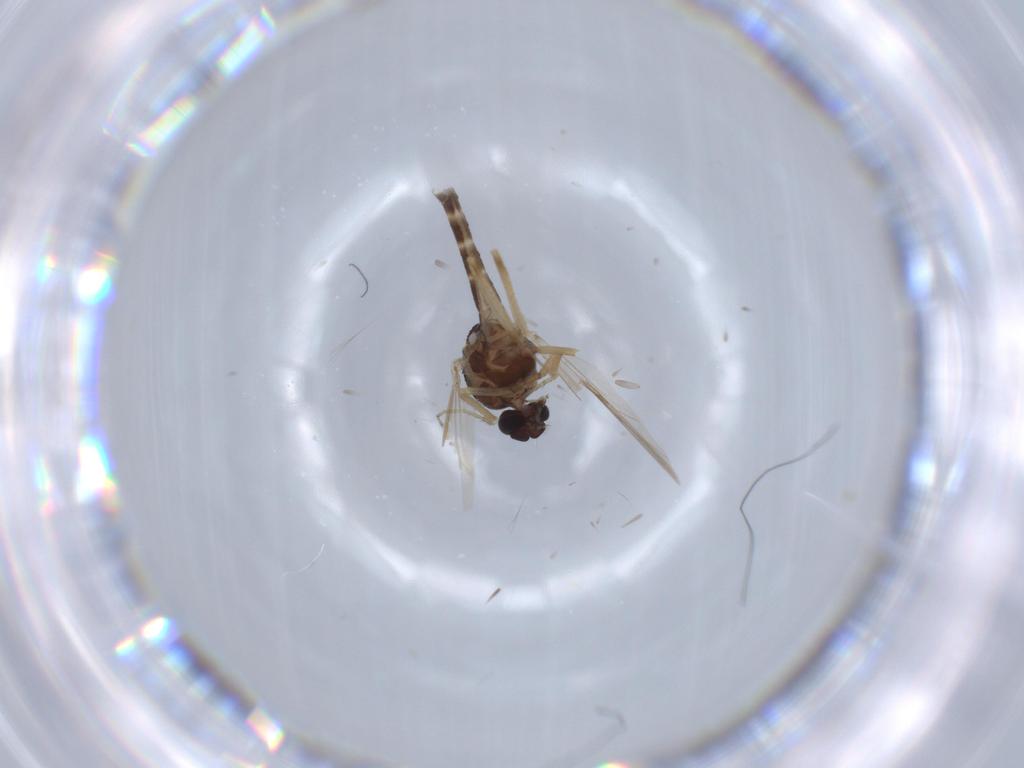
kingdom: Animalia
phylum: Arthropoda
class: Insecta
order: Diptera
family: Ceratopogonidae
